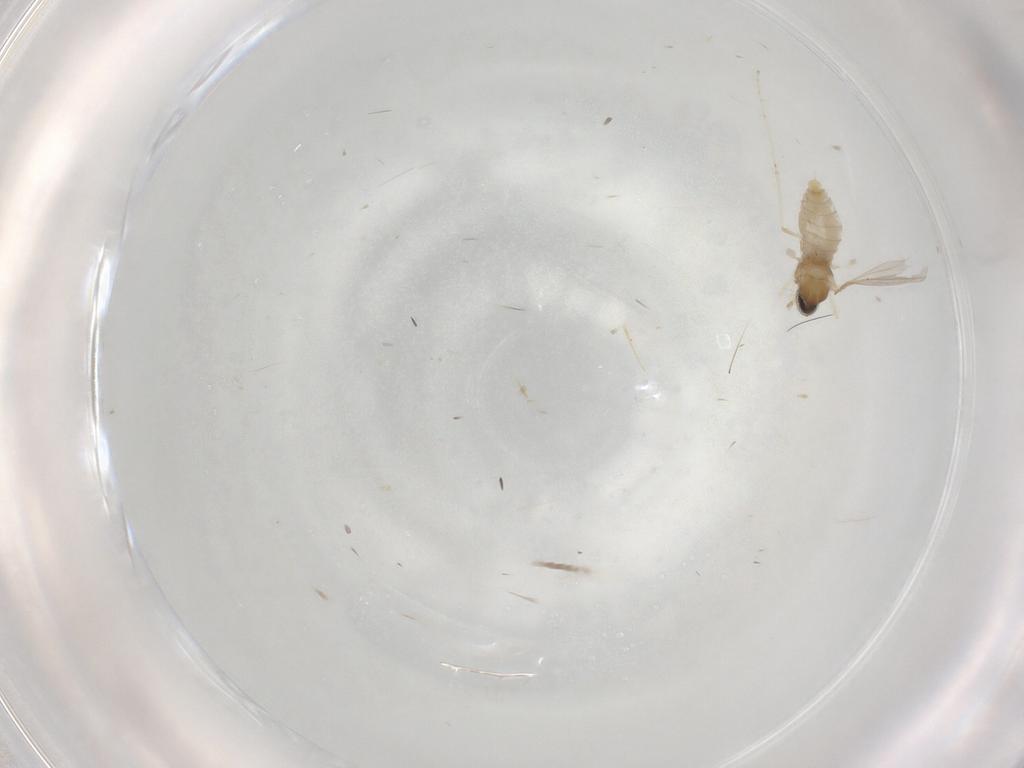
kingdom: Animalia
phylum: Arthropoda
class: Insecta
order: Diptera
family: Cecidomyiidae
